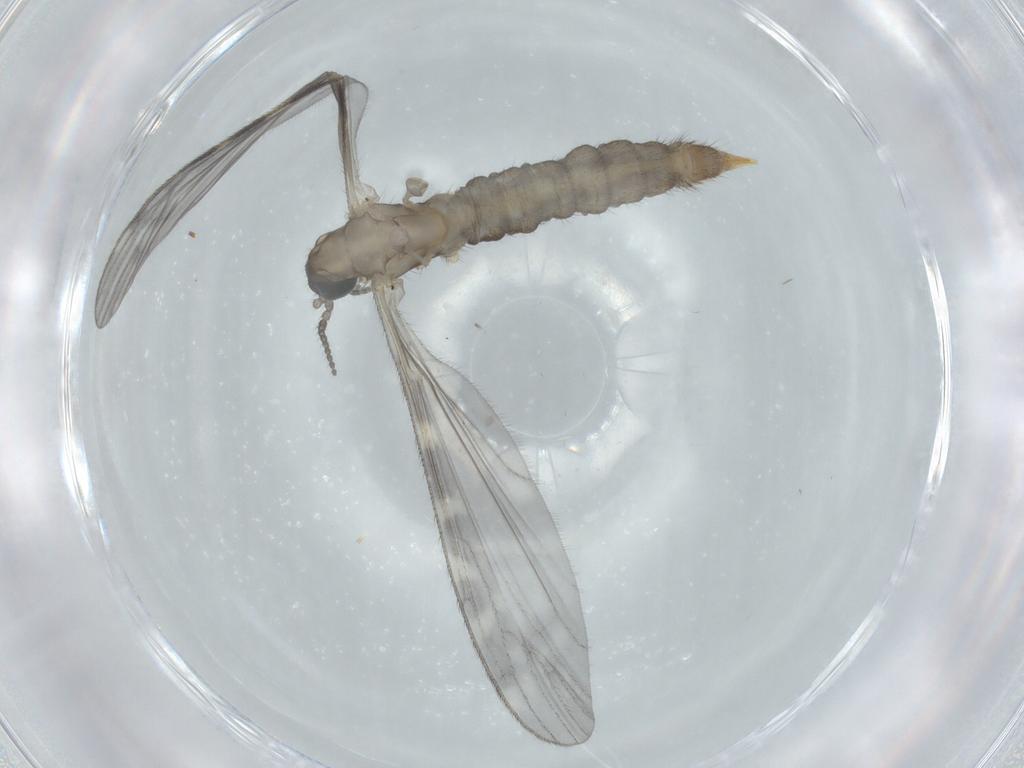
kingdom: Animalia
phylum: Arthropoda
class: Insecta
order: Diptera
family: Limoniidae
